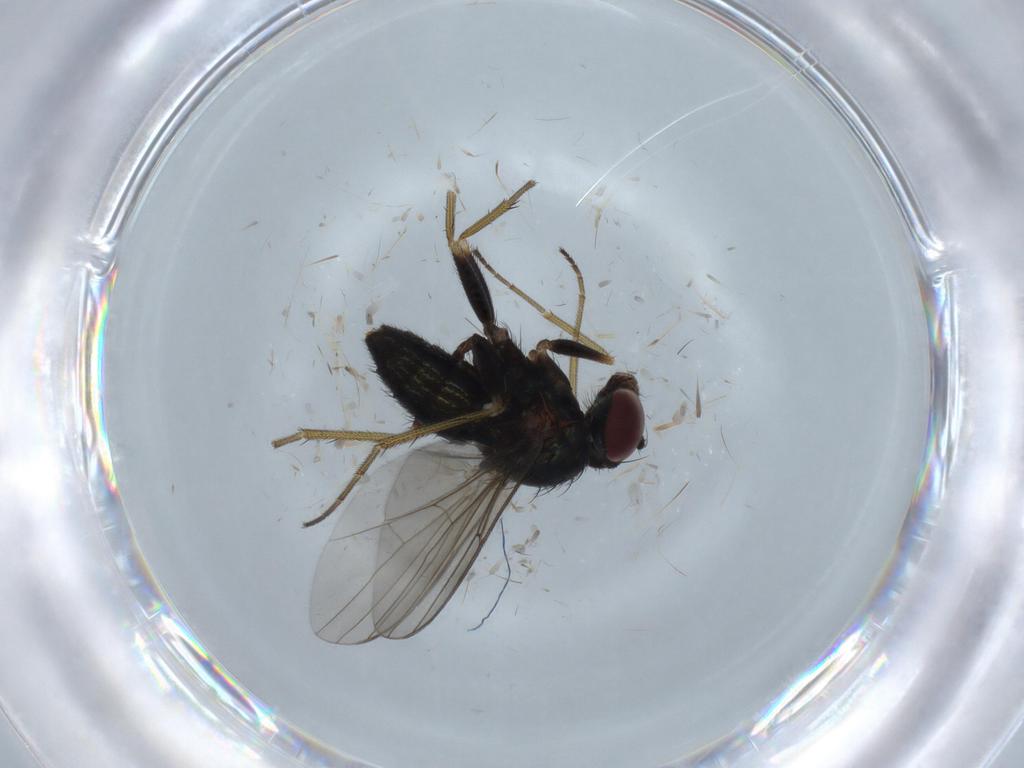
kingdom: Animalia
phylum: Arthropoda
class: Insecta
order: Diptera
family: Dolichopodidae
